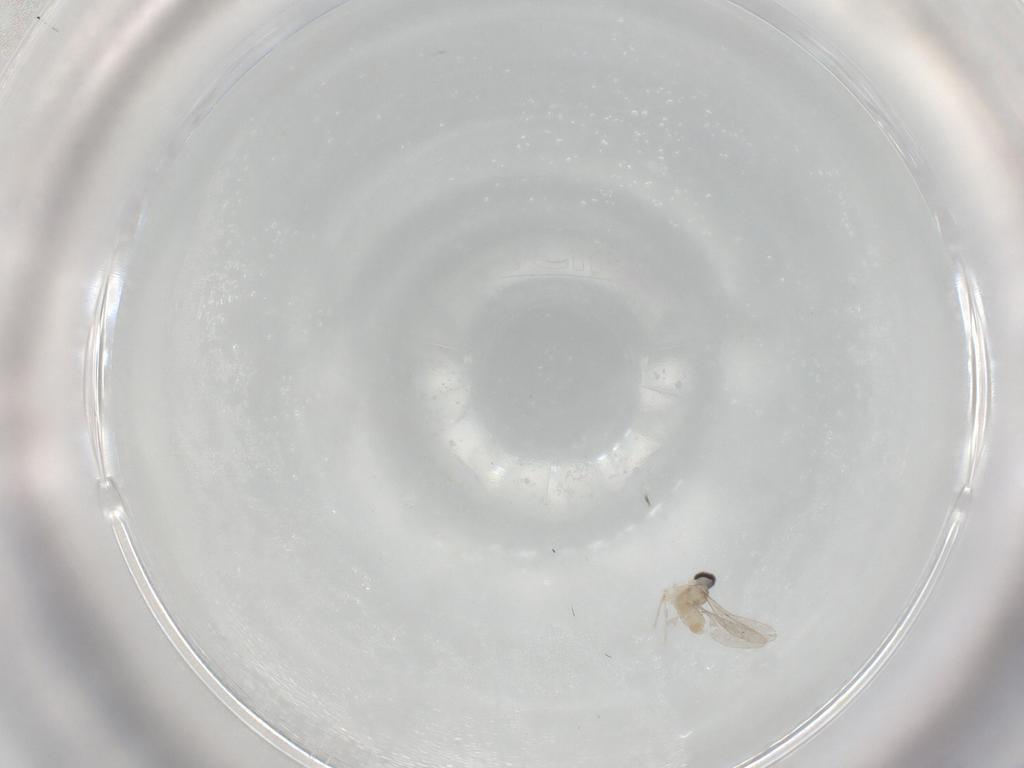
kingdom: Animalia
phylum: Arthropoda
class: Insecta
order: Diptera
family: Cecidomyiidae
